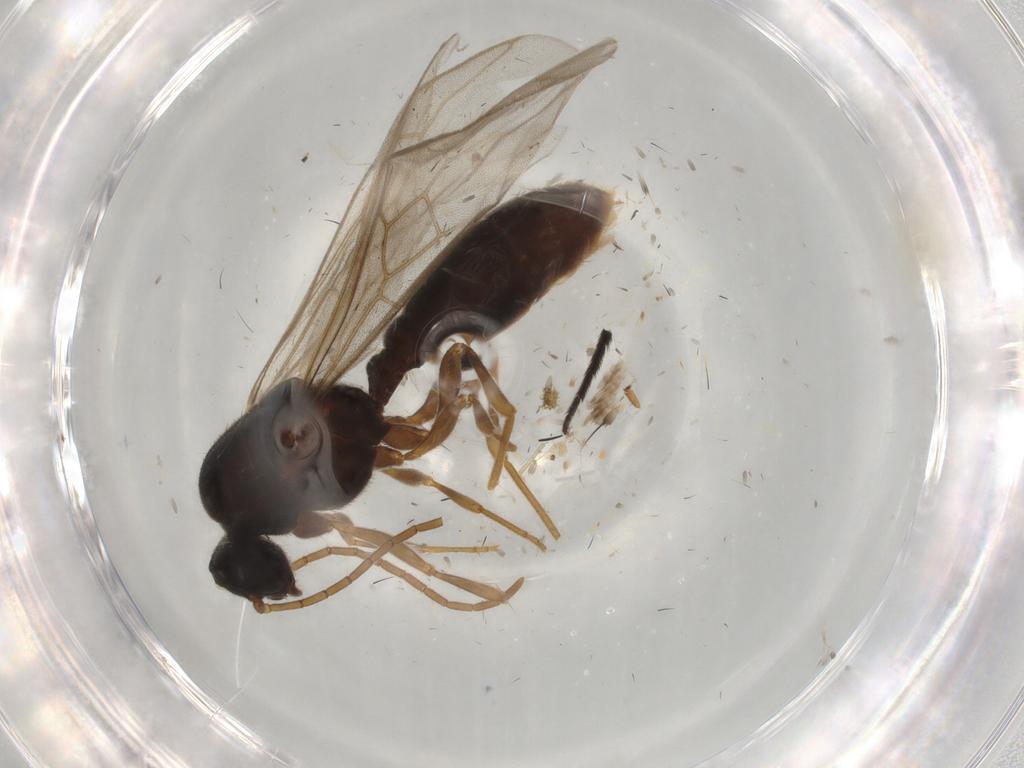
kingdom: Animalia
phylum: Arthropoda
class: Insecta
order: Hymenoptera
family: Formicidae
